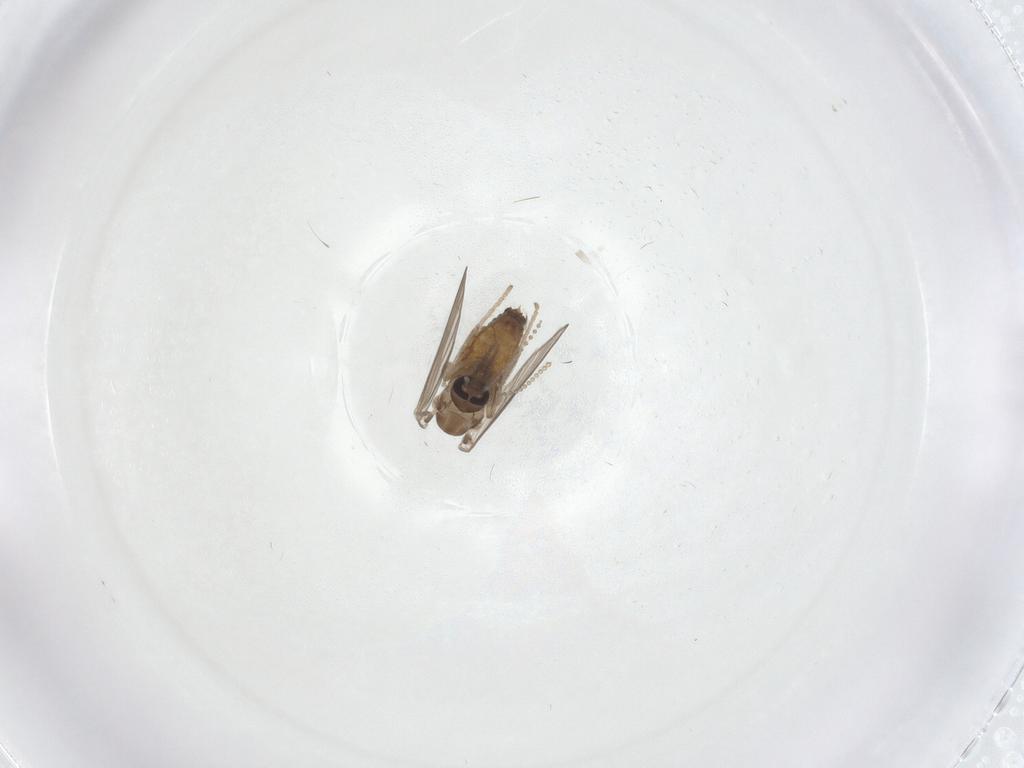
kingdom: Animalia
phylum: Arthropoda
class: Insecta
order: Diptera
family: Psychodidae
